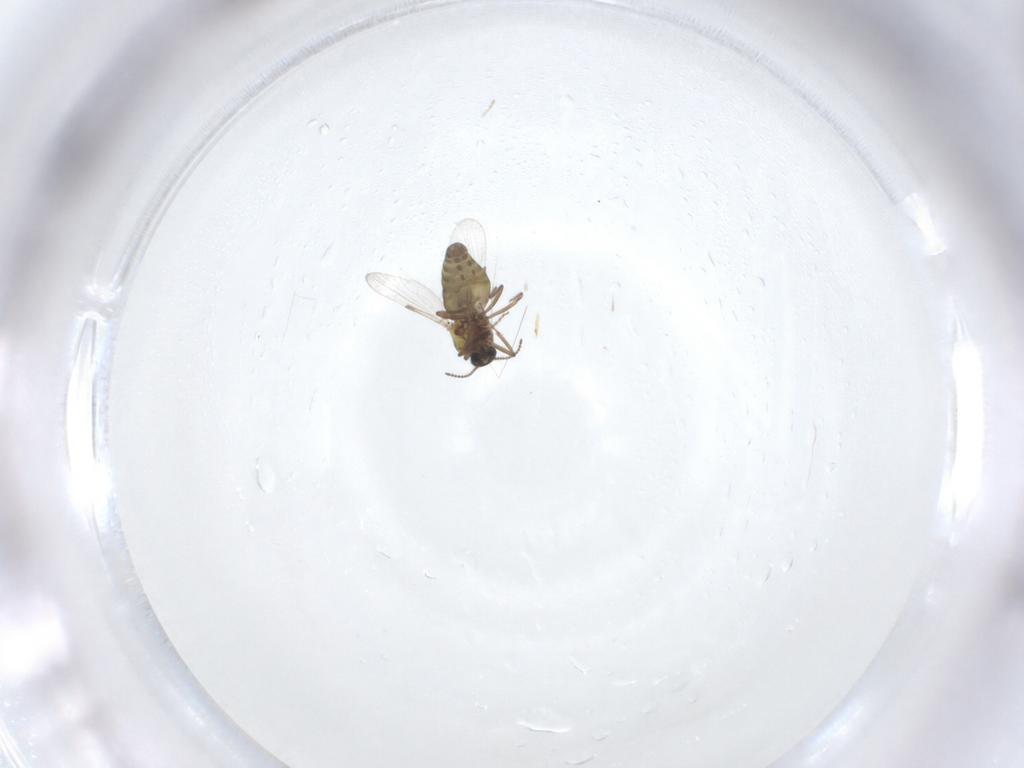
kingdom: Animalia
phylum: Arthropoda
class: Insecta
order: Diptera
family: Ceratopogonidae
